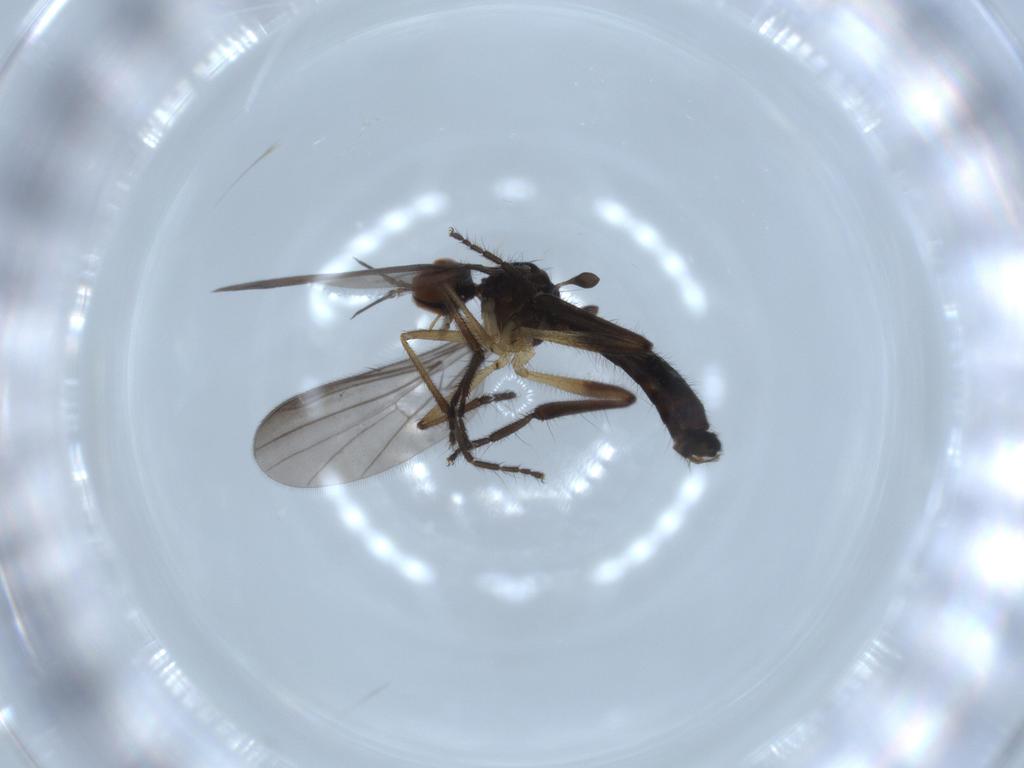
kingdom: Animalia
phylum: Arthropoda
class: Insecta
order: Diptera
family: Empididae
